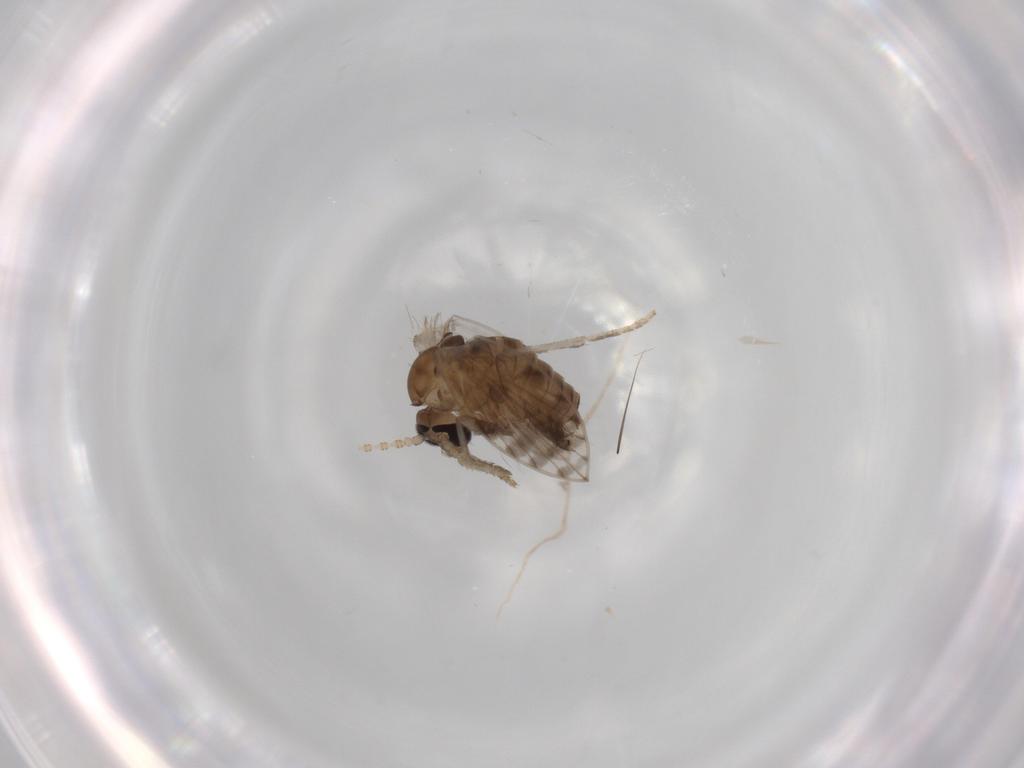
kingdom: Animalia
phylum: Arthropoda
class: Insecta
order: Diptera
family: Psychodidae
